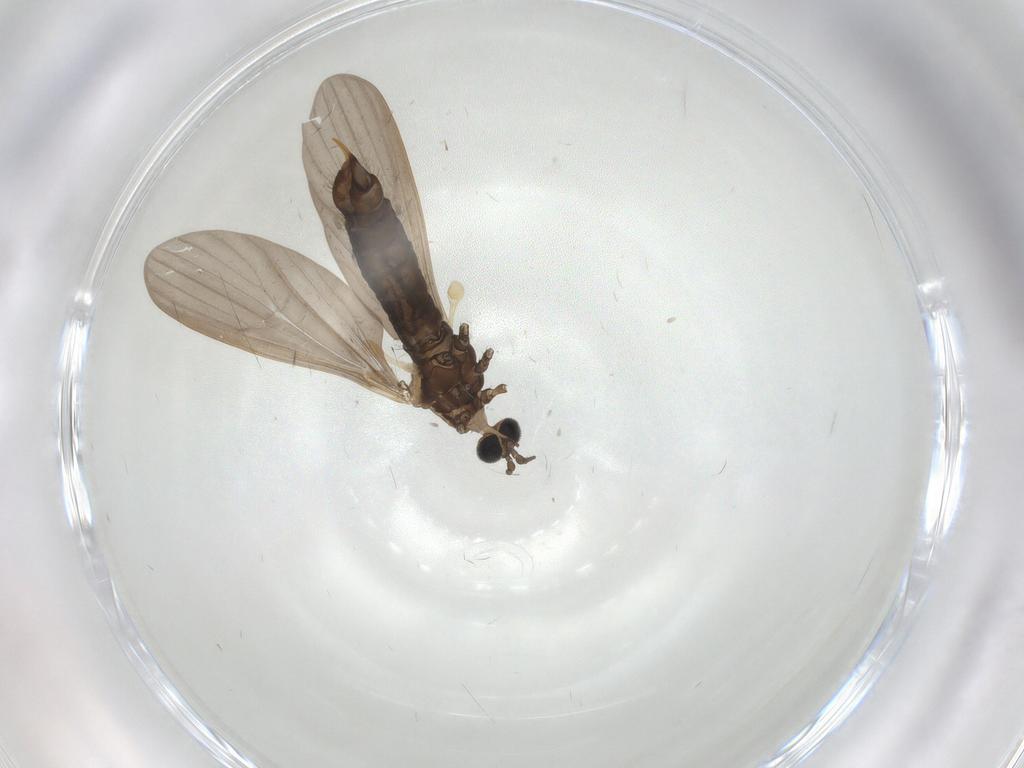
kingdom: Animalia
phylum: Arthropoda
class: Insecta
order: Diptera
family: Limoniidae
